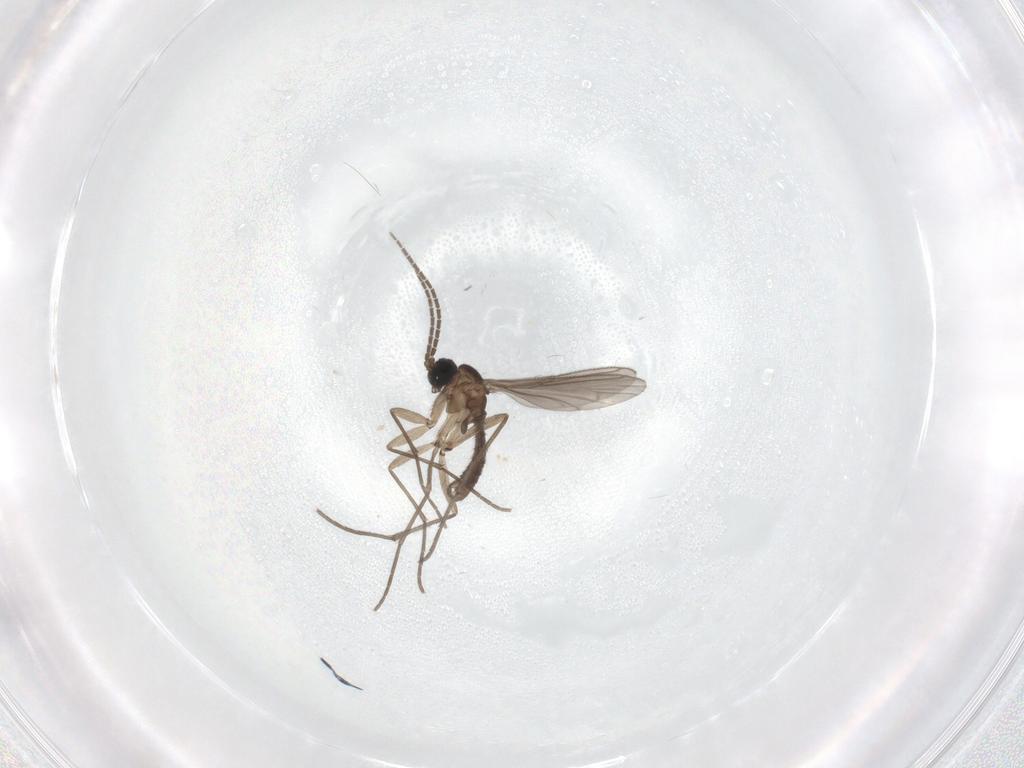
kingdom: Animalia
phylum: Arthropoda
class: Insecta
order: Diptera
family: Sciaridae
